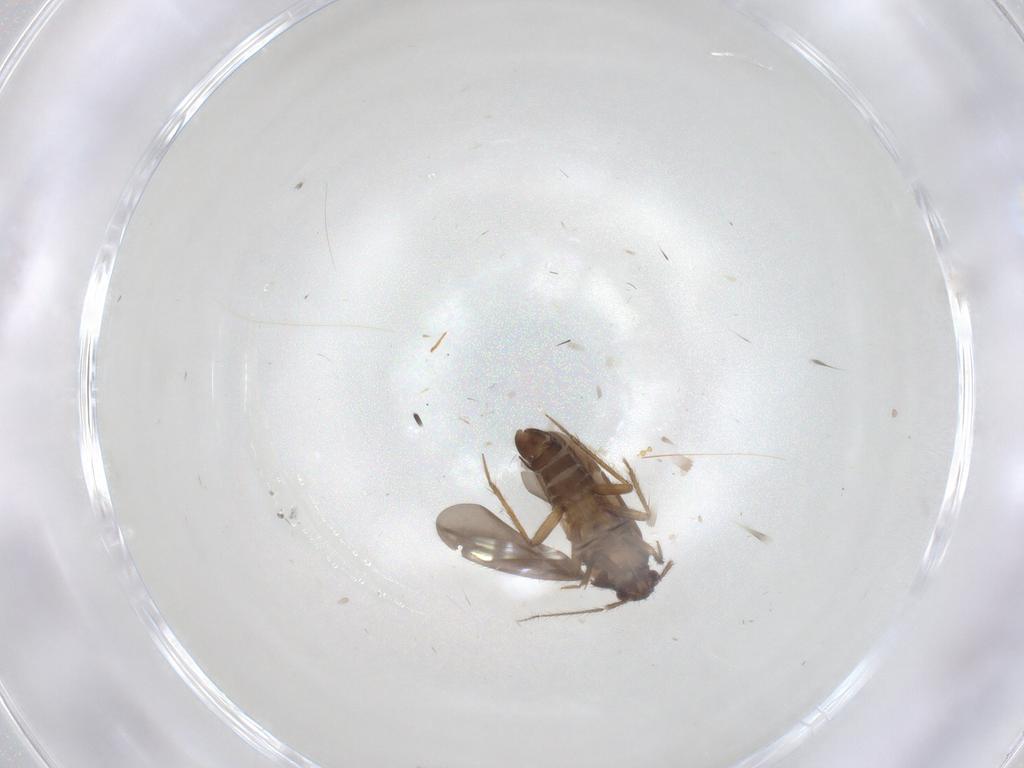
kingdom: Animalia
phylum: Arthropoda
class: Insecta
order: Hemiptera
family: Ceratocombidae
